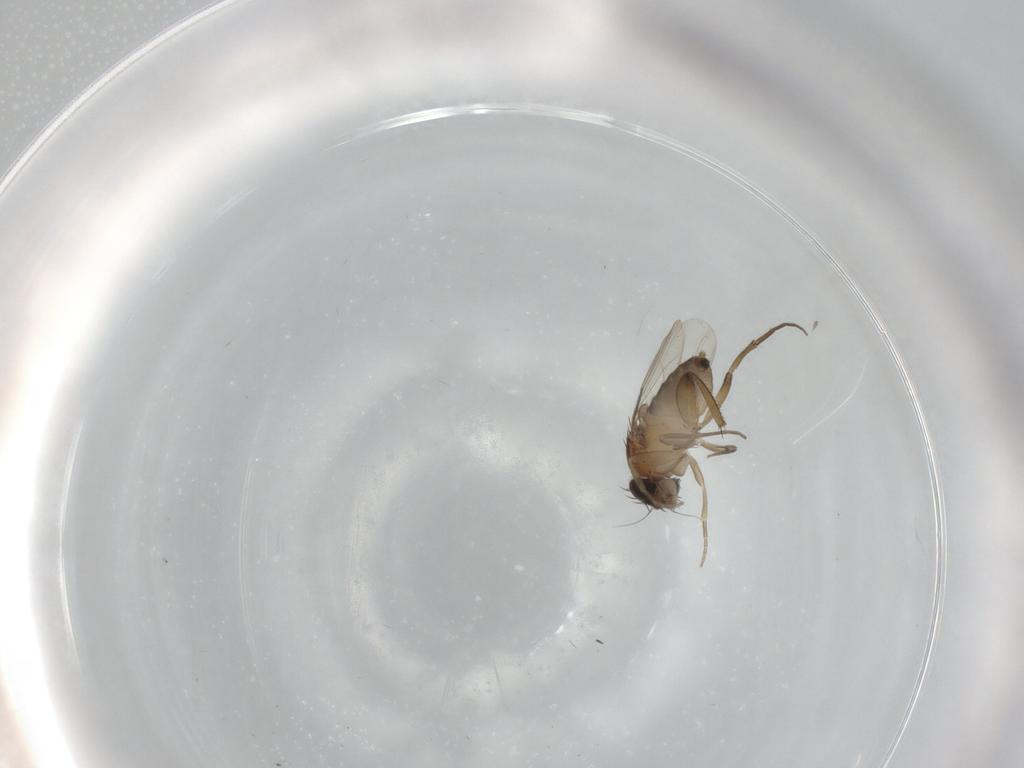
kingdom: Animalia
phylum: Arthropoda
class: Insecta
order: Diptera
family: Phoridae
